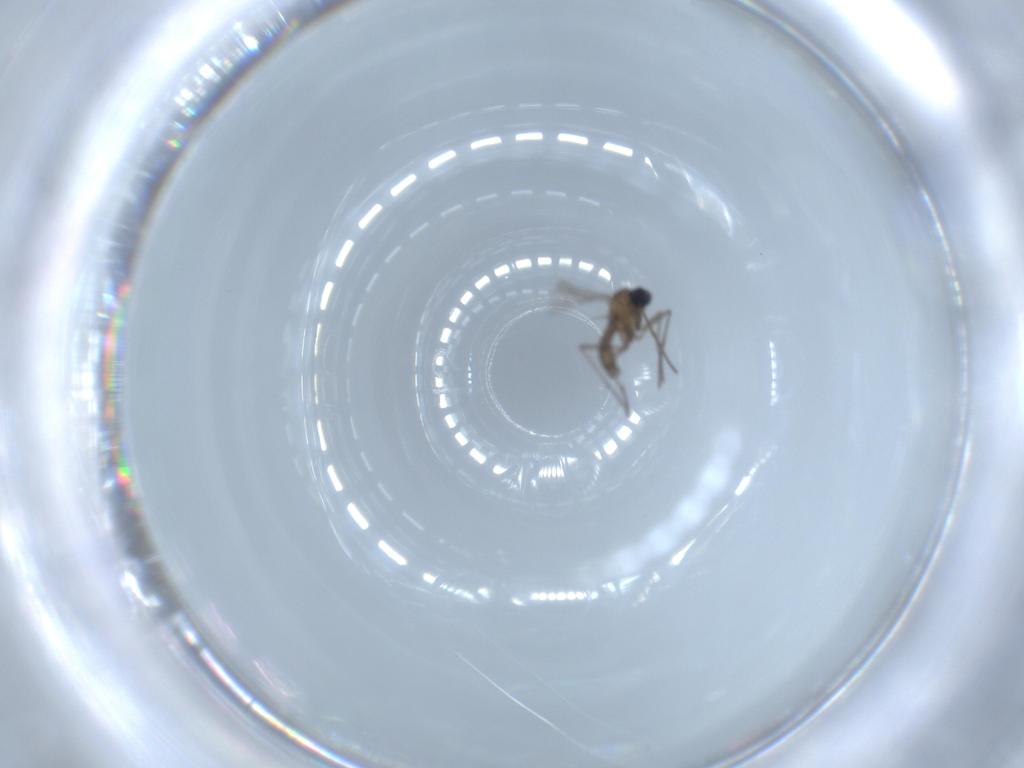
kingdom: Animalia
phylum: Arthropoda
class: Insecta
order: Diptera
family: Sciaridae
